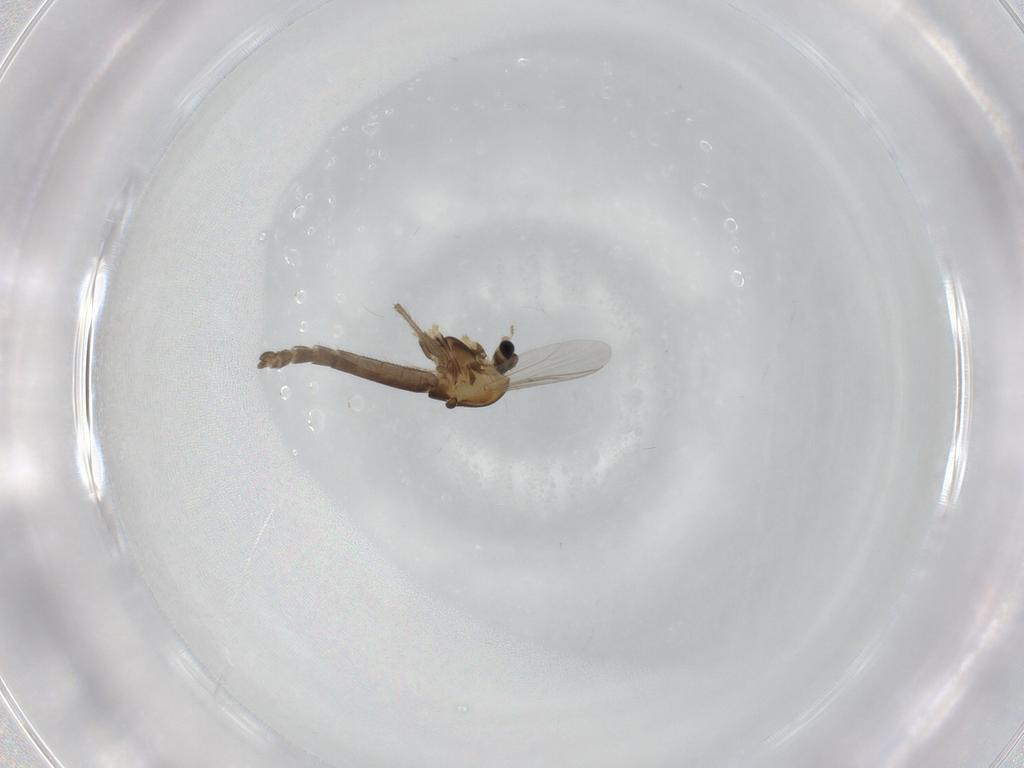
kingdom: Animalia
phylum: Arthropoda
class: Insecta
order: Diptera
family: Chironomidae
